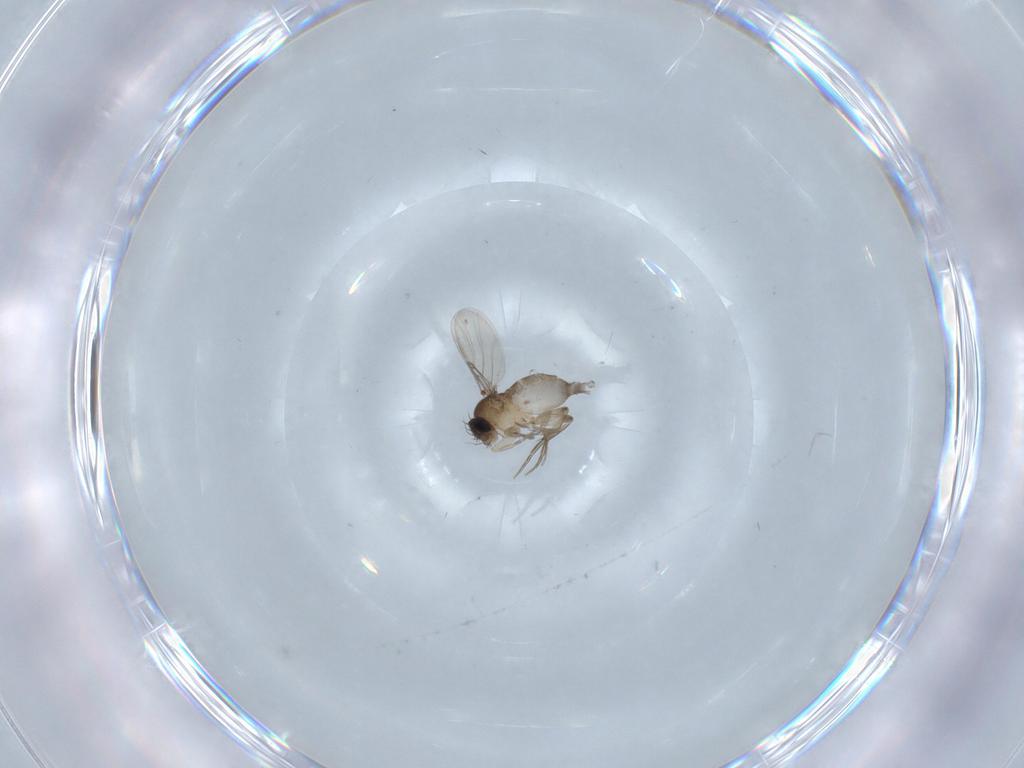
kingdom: Animalia
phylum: Arthropoda
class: Insecta
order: Diptera
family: Phoridae
